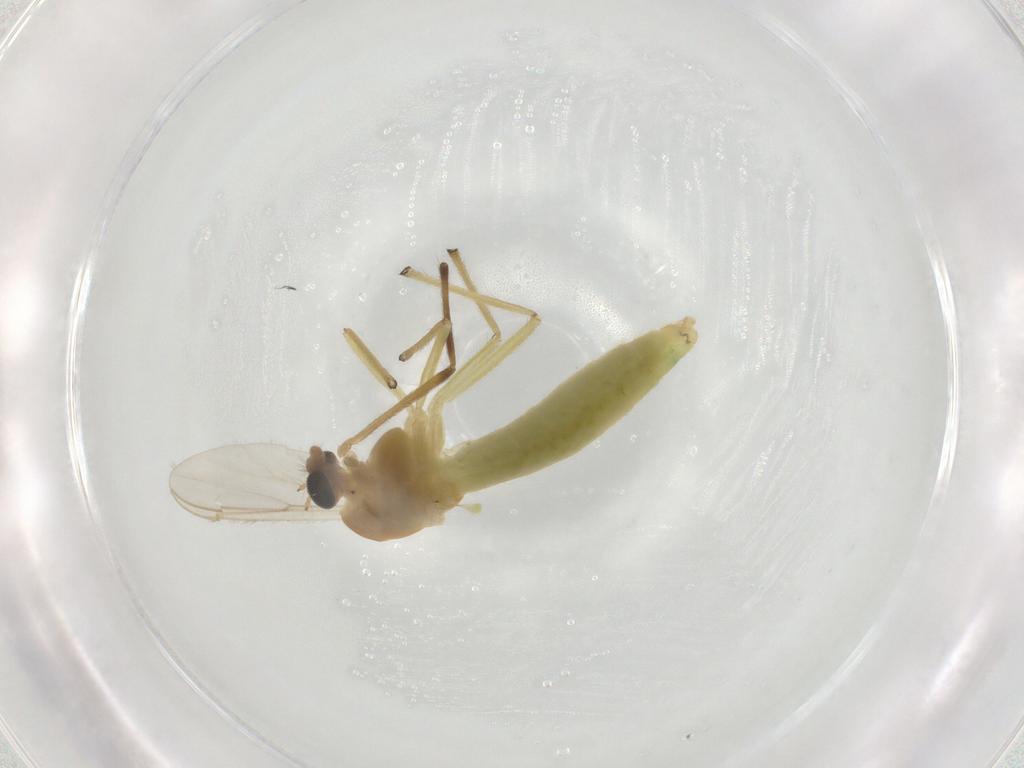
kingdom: Animalia
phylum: Arthropoda
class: Insecta
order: Diptera
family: Chironomidae
